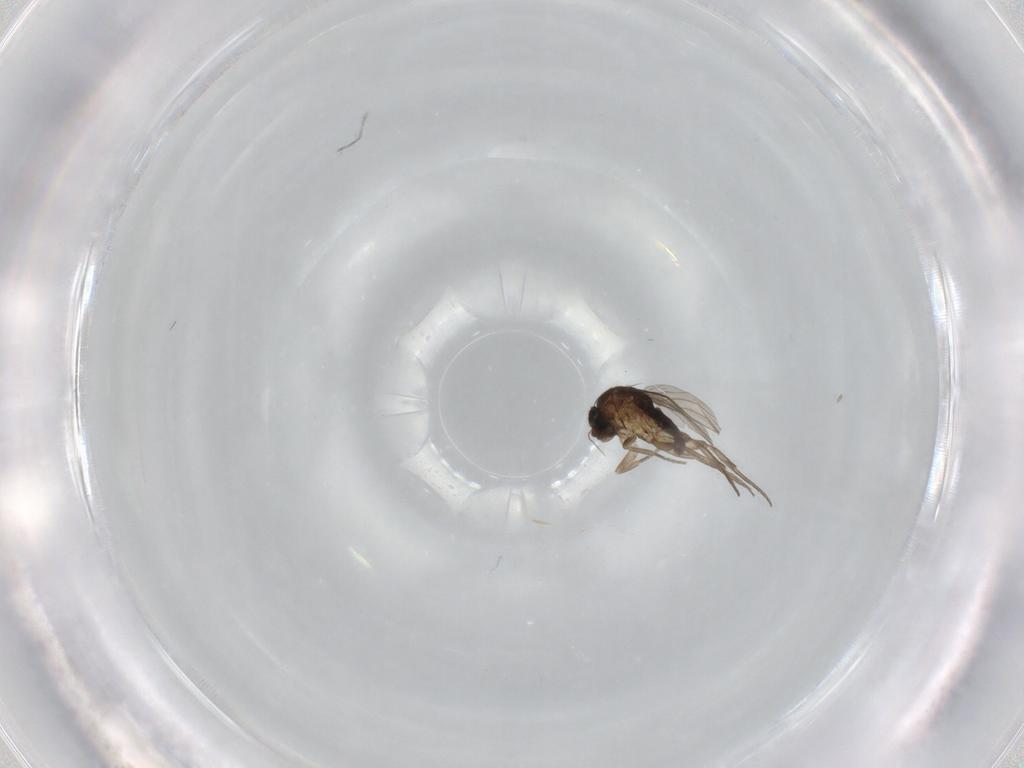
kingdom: Animalia
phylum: Arthropoda
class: Insecta
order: Diptera
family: Phoridae
